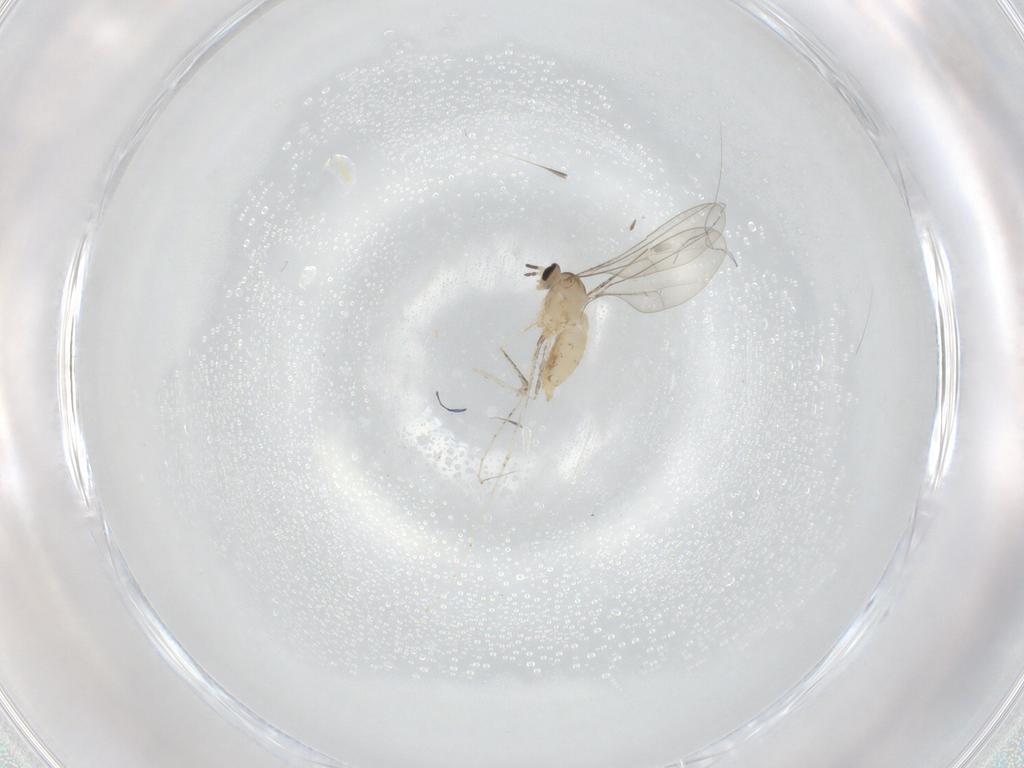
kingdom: Animalia
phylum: Arthropoda
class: Insecta
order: Diptera
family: Cecidomyiidae
